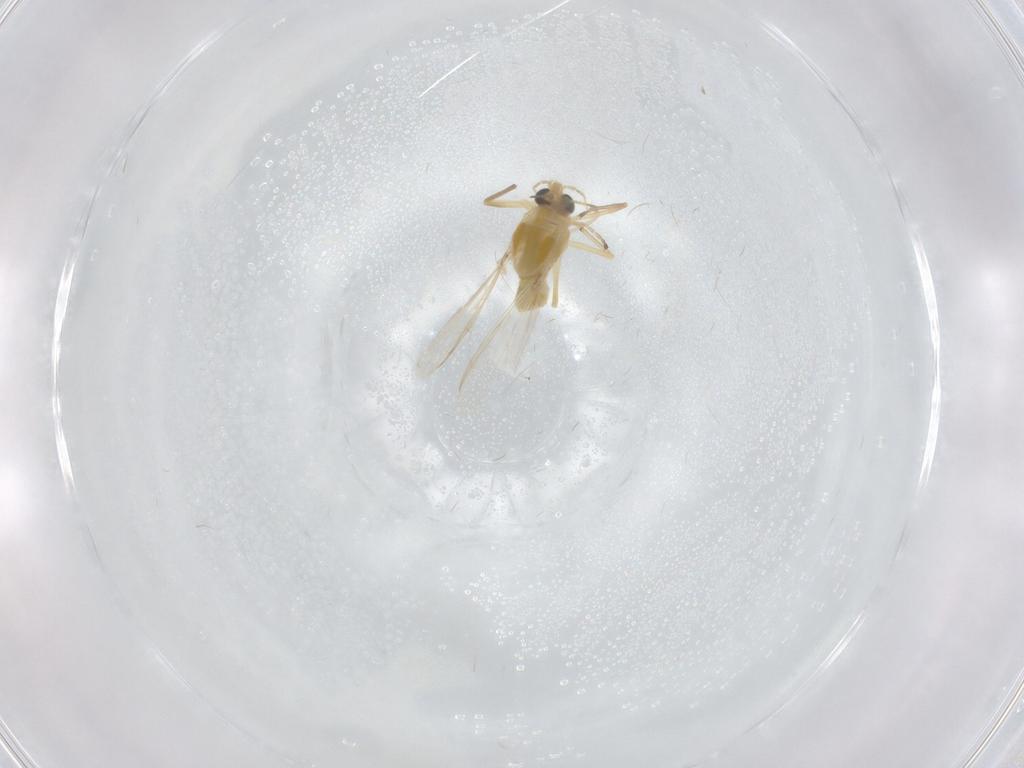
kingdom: Animalia
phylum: Arthropoda
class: Insecta
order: Diptera
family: Chironomidae
